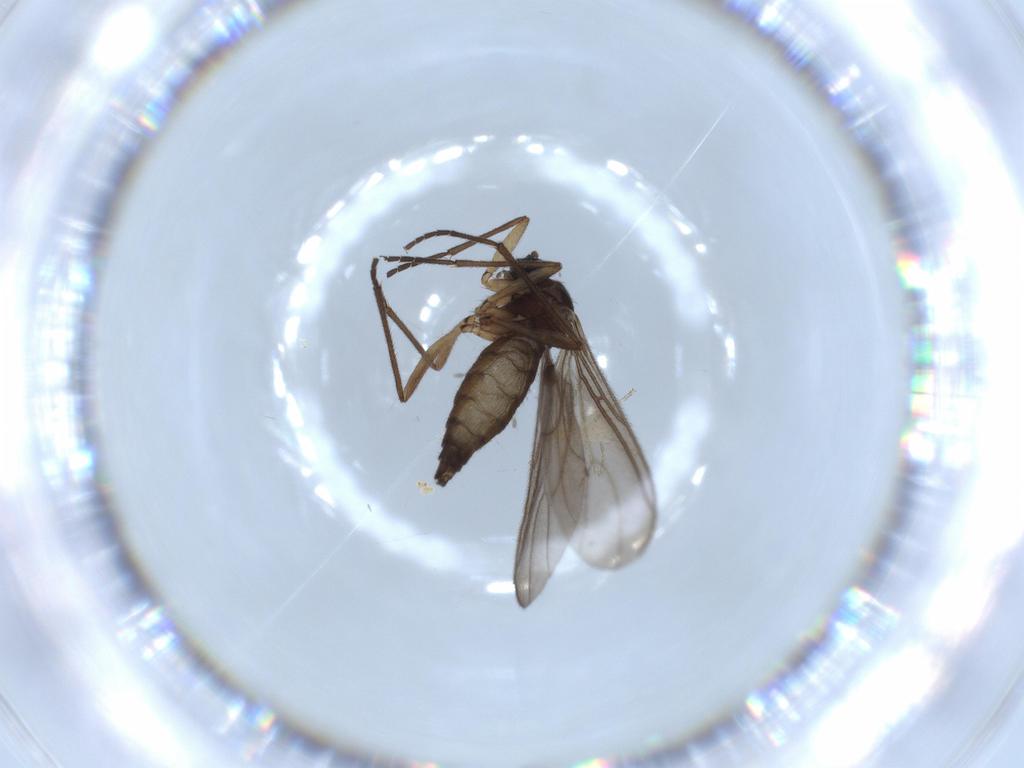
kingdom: Animalia
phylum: Arthropoda
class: Insecta
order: Diptera
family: Sciaridae
